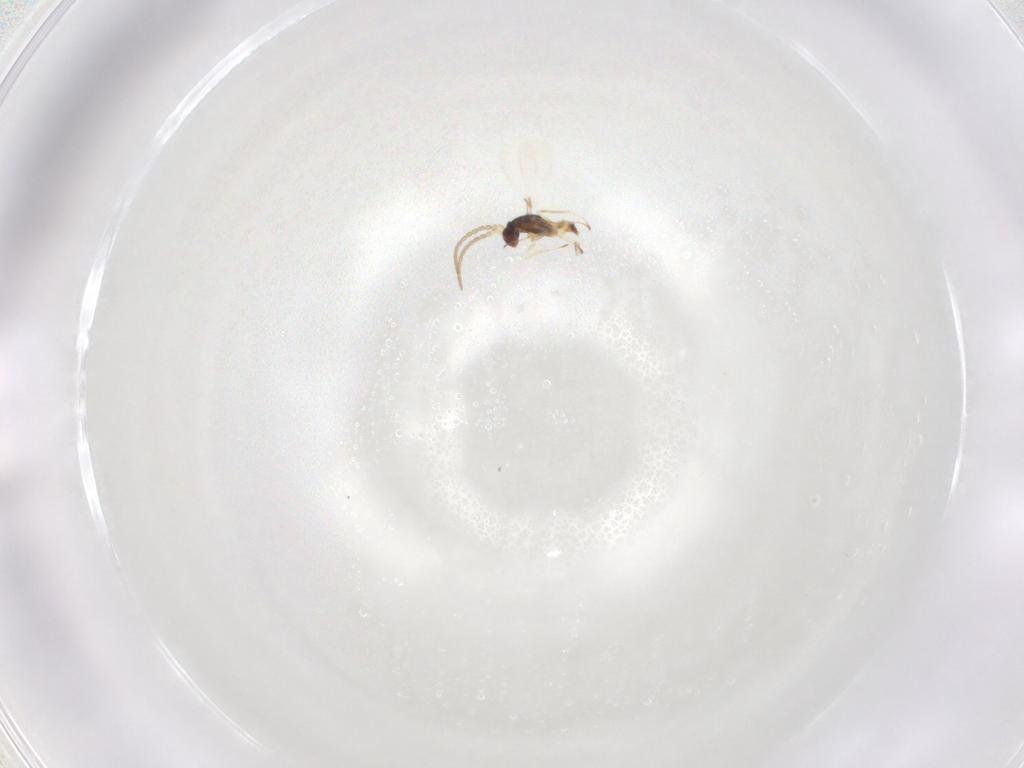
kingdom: Animalia
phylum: Arthropoda
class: Insecta
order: Hymenoptera
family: Mymaridae
